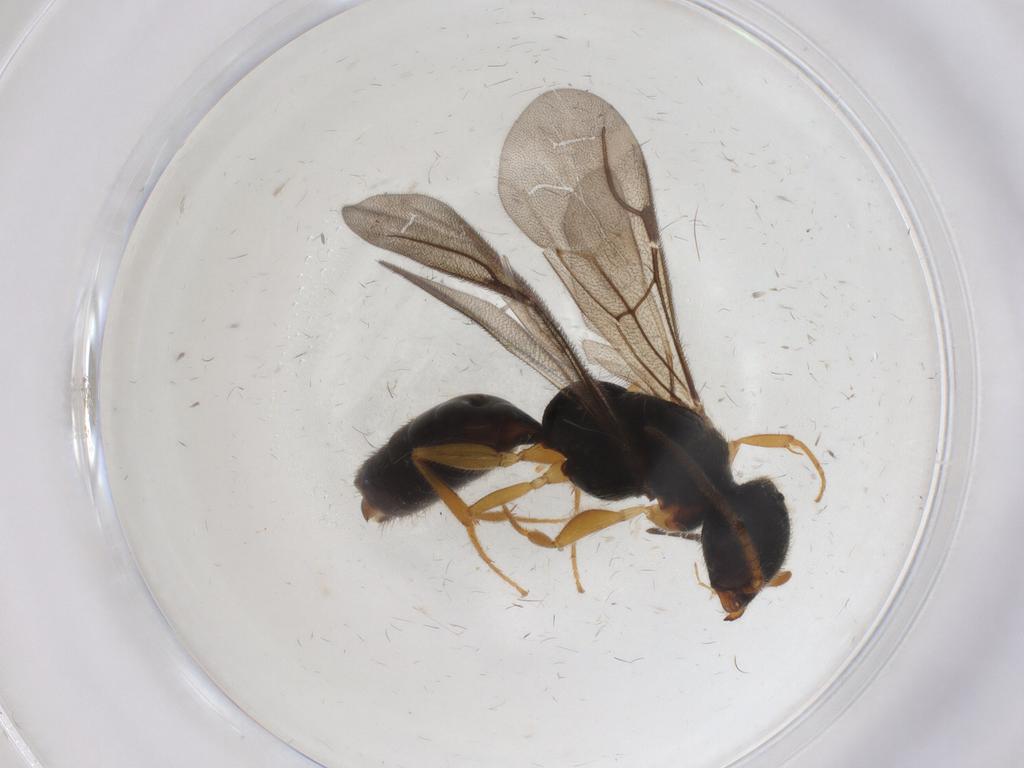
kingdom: Animalia
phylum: Arthropoda
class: Insecta
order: Hymenoptera
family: Bethylidae
